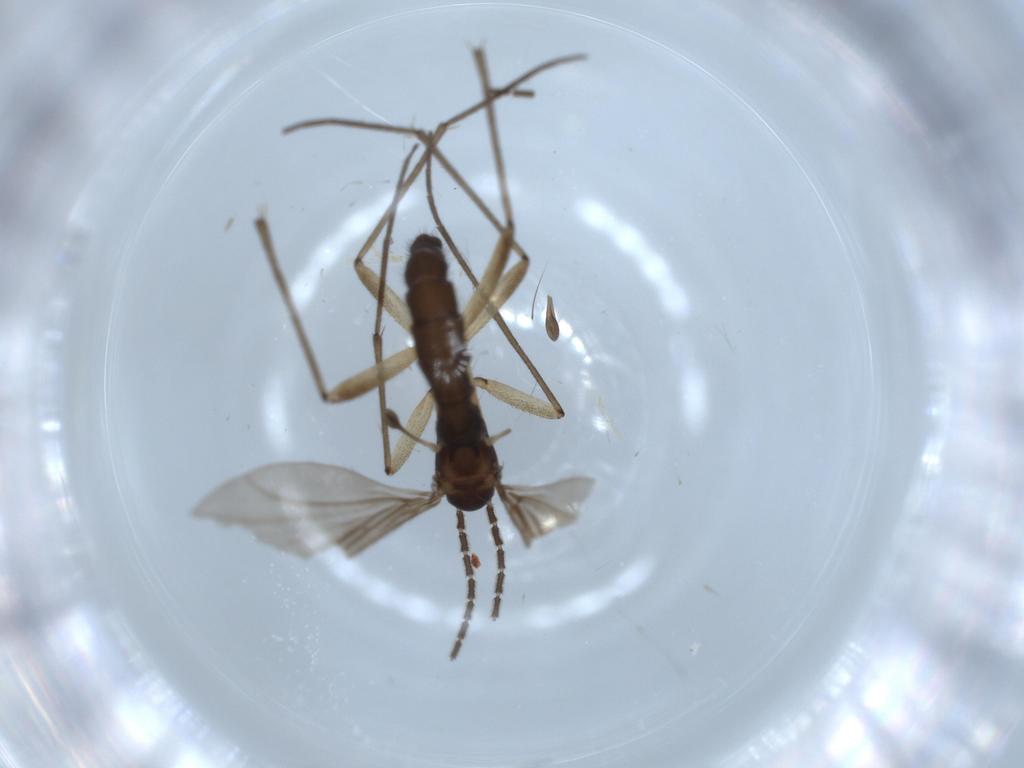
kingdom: Animalia
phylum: Arthropoda
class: Insecta
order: Diptera
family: Sciaridae
